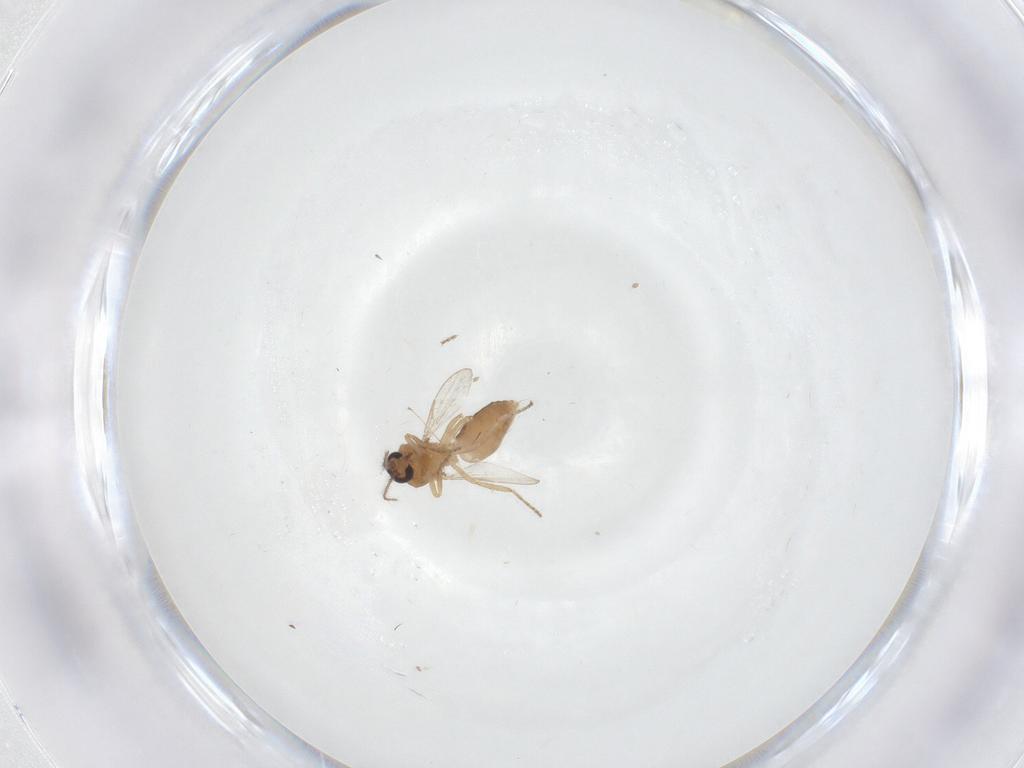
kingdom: Animalia
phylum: Arthropoda
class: Insecta
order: Diptera
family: Ceratopogonidae
